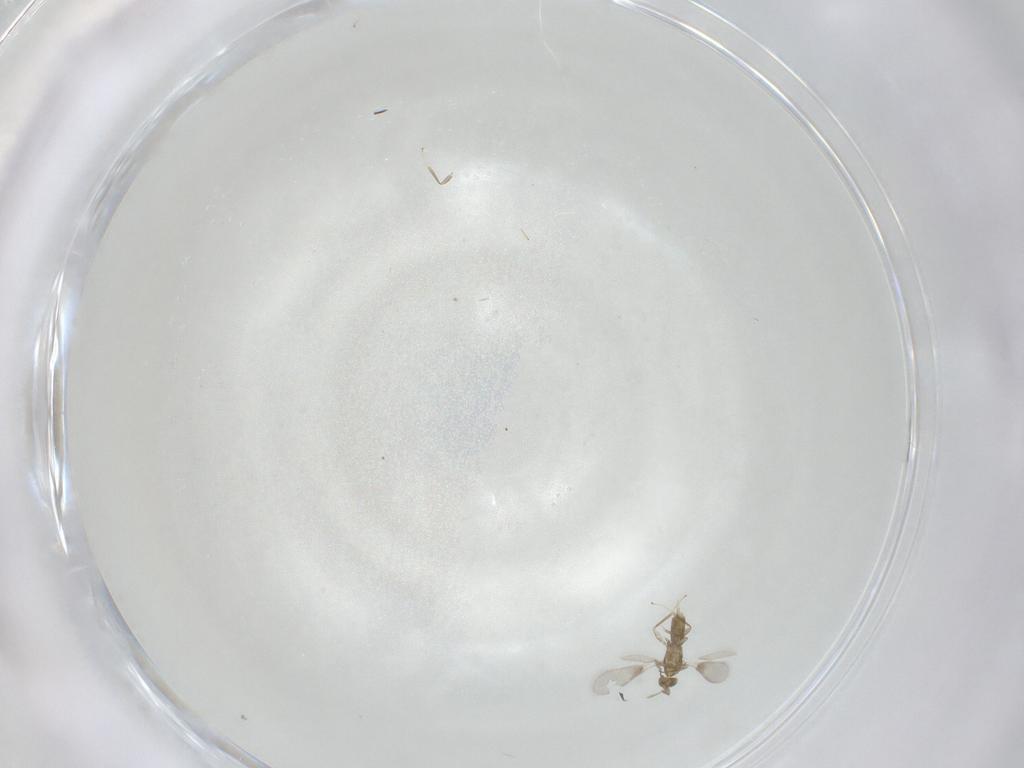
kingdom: Animalia
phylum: Arthropoda
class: Insecta
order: Hymenoptera
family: Aphelinidae
